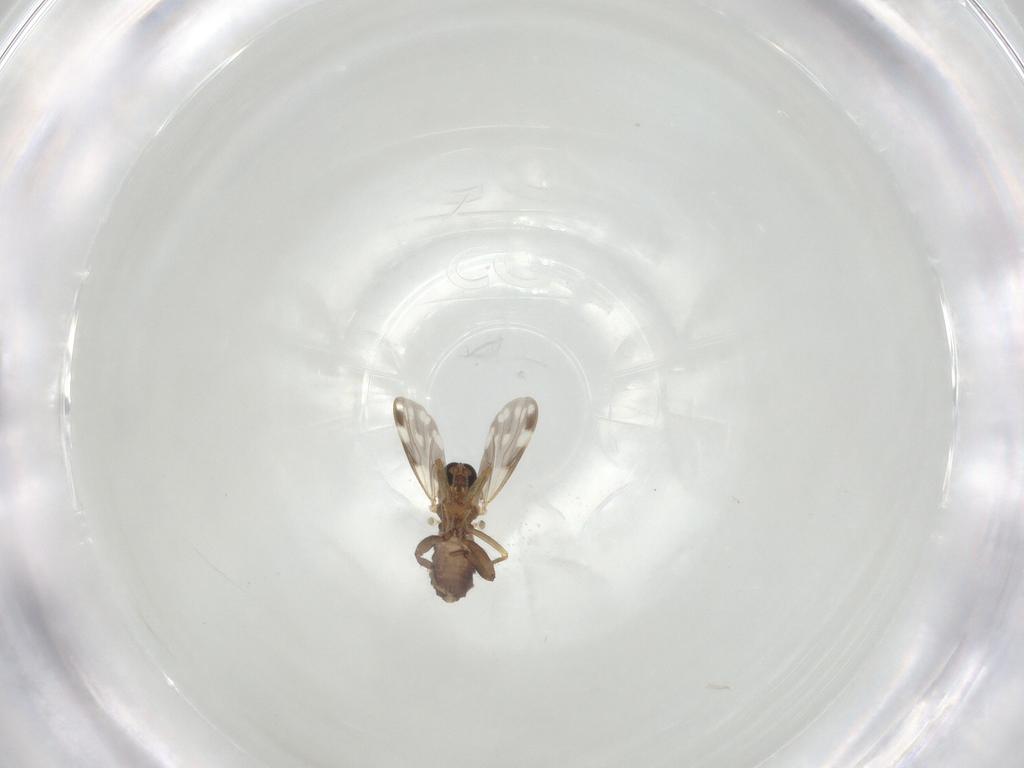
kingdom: Animalia
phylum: Arthropoda
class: Insecta
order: Diptera
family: Ceratopogonidae
